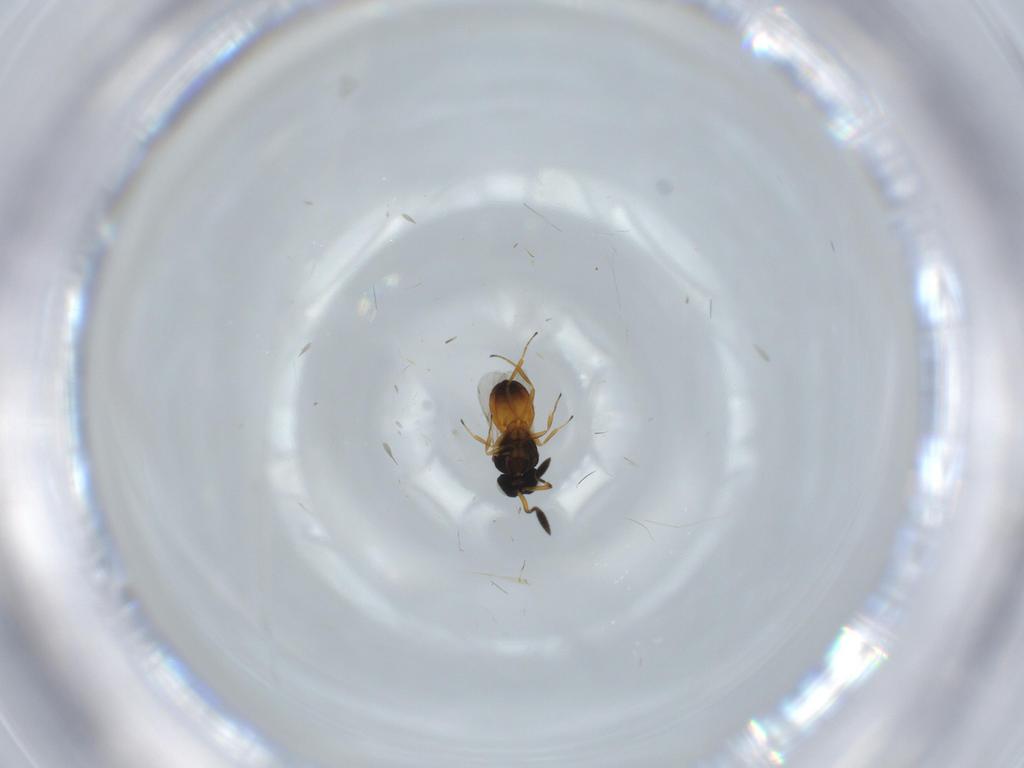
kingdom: Animalia
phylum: Arthropoda
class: Insecta
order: Hymenoptera
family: Scelionidae
